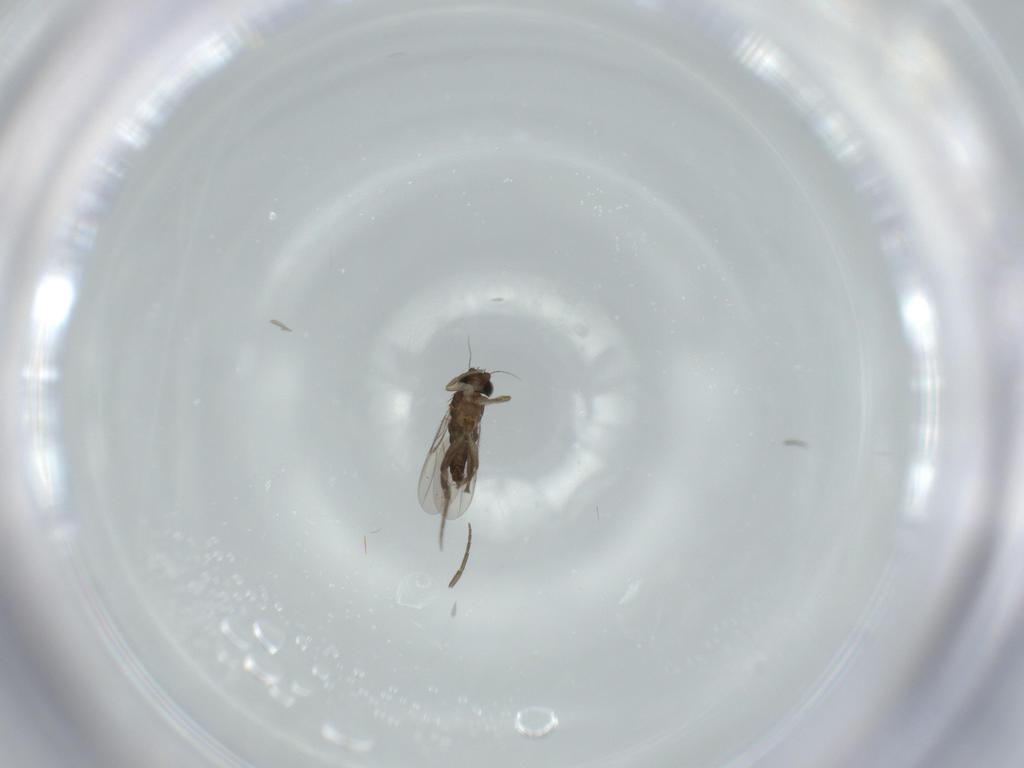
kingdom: Animalia
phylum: Arthropoda
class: Insecta
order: Diptera
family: Phoridae
